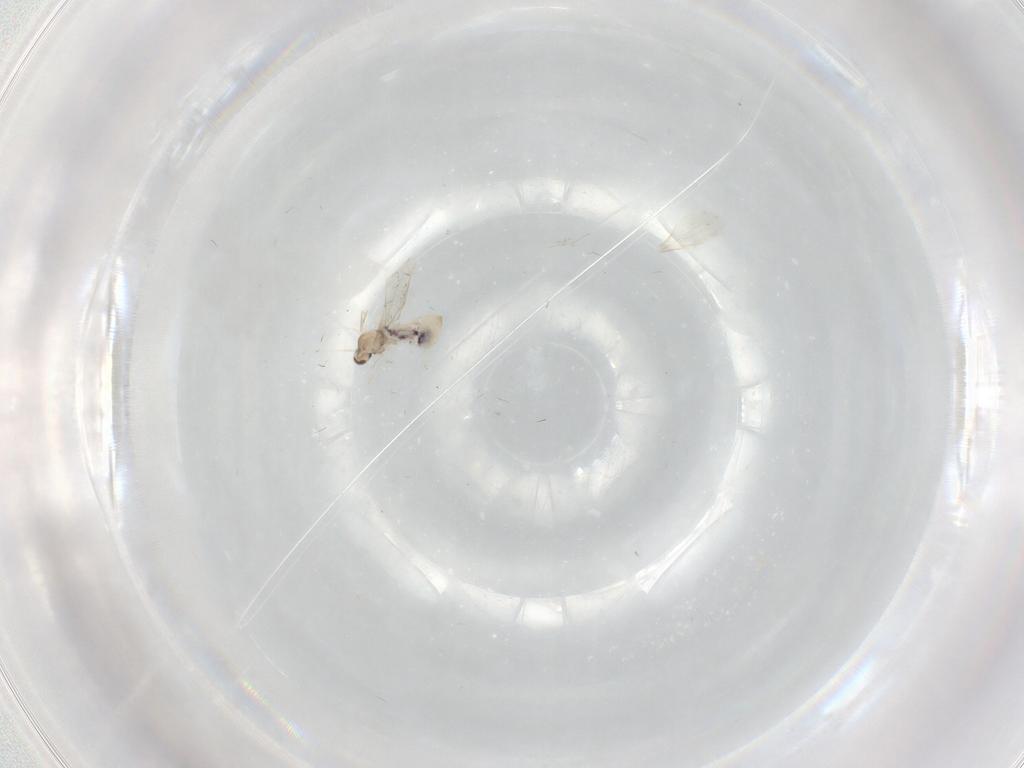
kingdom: Animalia
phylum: Arthropoda
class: Insecta
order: Diptera
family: Cecidomyiidae
